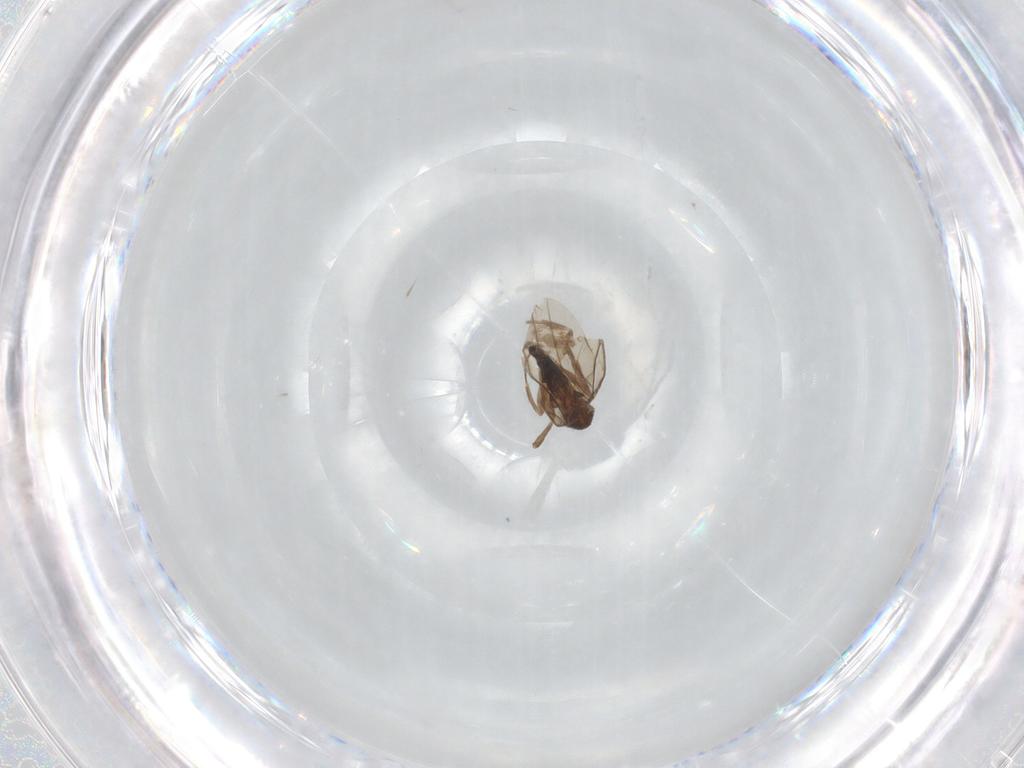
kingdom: Animalia
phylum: Arthropoda
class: Insecta
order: Diptera
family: Phoridae
